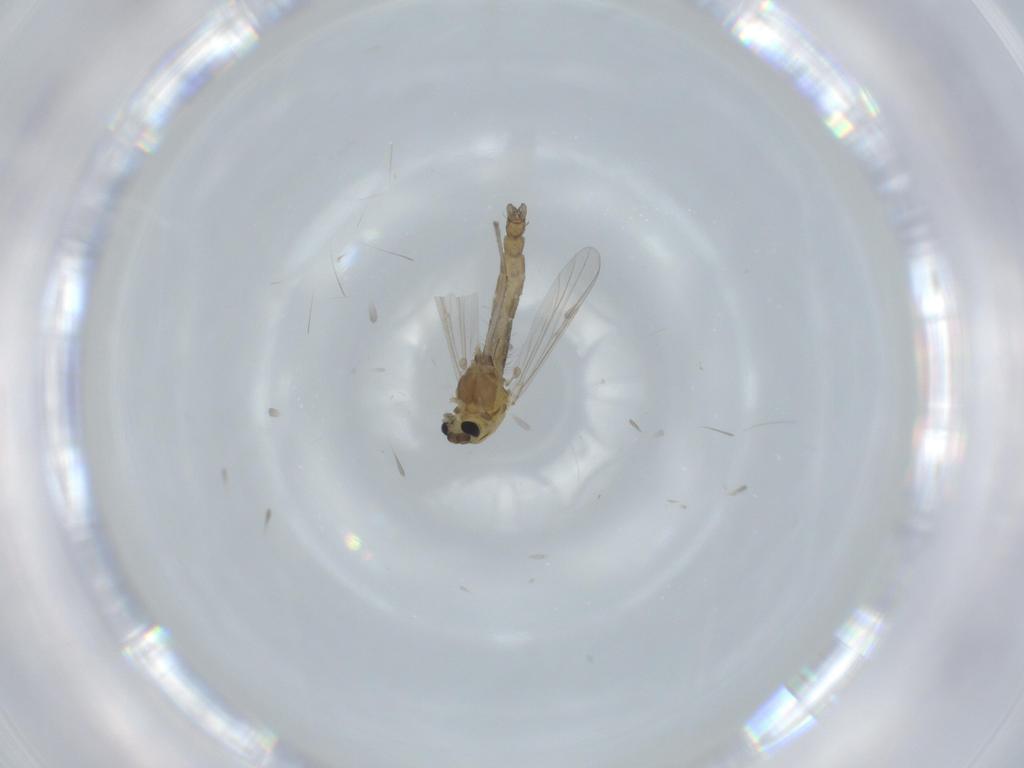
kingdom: Animalia
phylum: Arthropoda
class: Insecta
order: Diptera
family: Chironomidae
